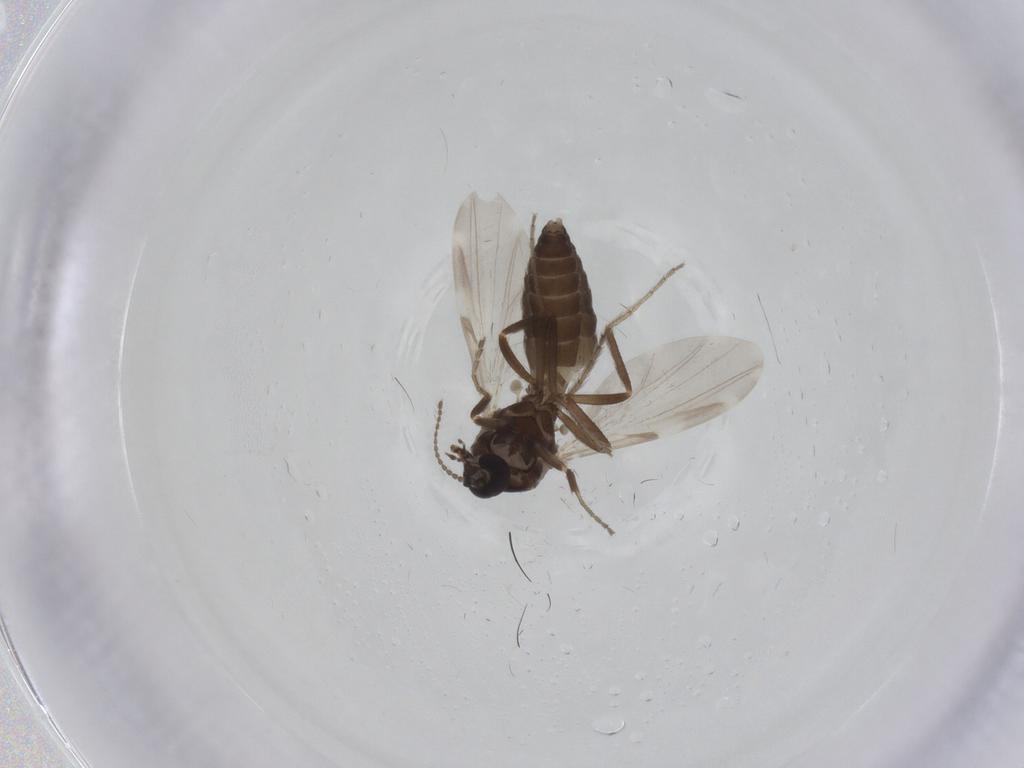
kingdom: Animalia
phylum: Arthropoda
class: Insecta
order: Diptera
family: Ceratopogonidae
